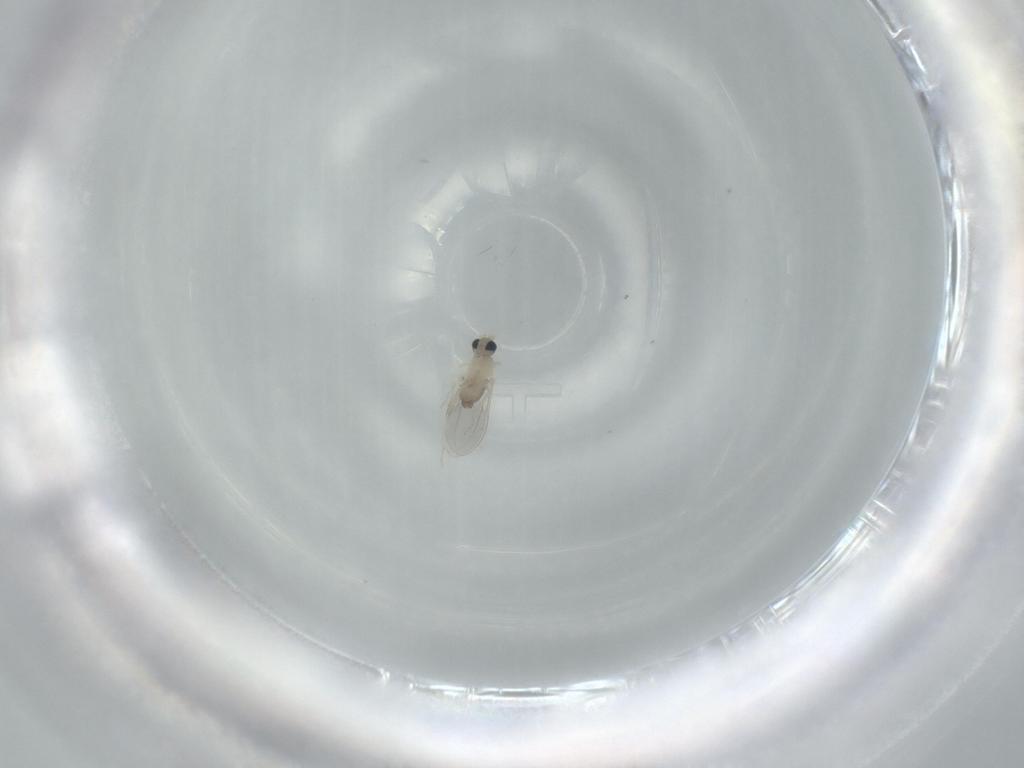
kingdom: Animalia
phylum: Arthropoda
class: Insecta
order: Diptera
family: Cecidomyiidae
